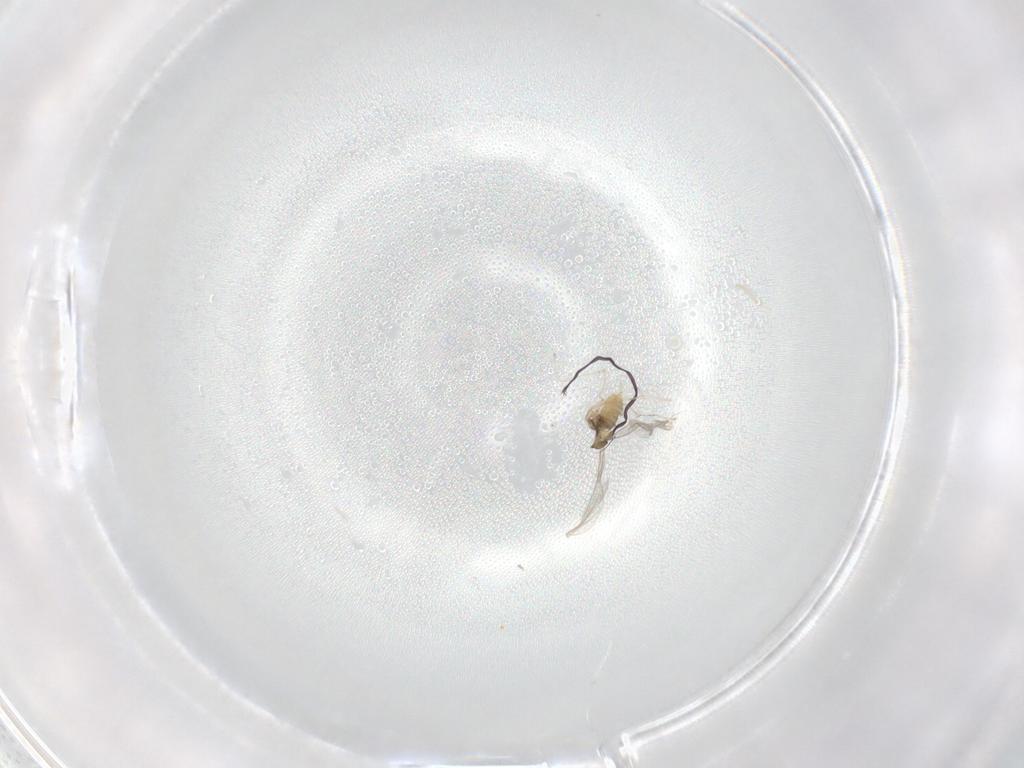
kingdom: Animalia
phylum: Arthropoda
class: Insecta
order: Diptera
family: Cecidomyiidae
